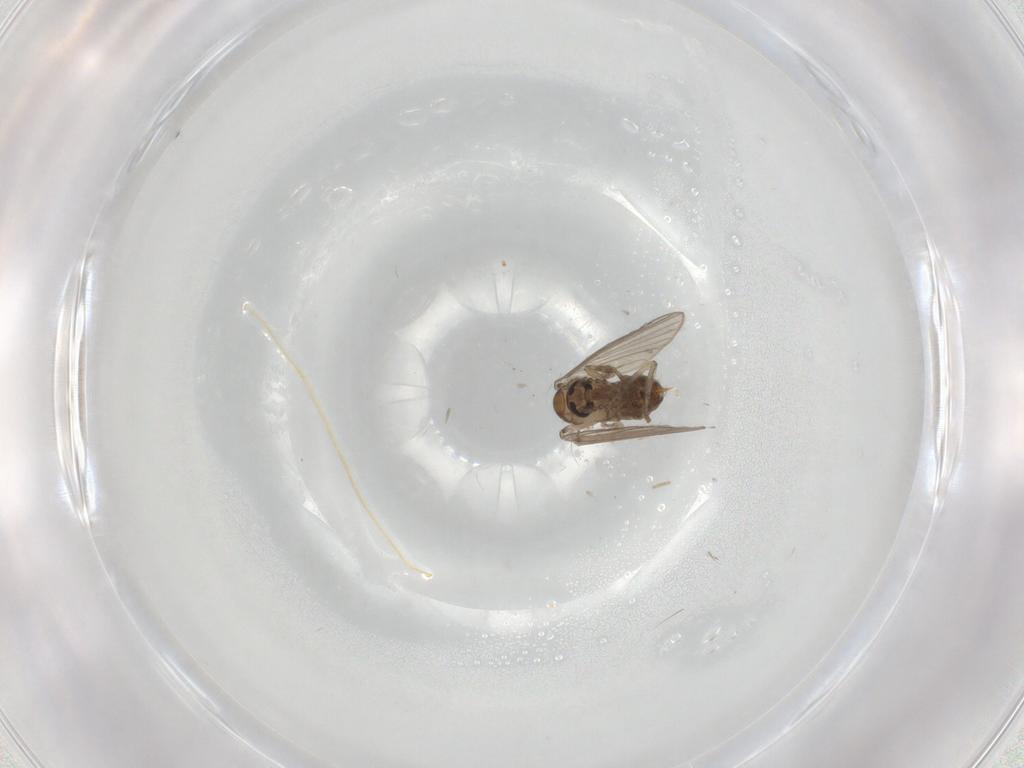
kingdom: Animalia
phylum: Arthropoda
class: Insecta
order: Diptera
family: Psychodidae
